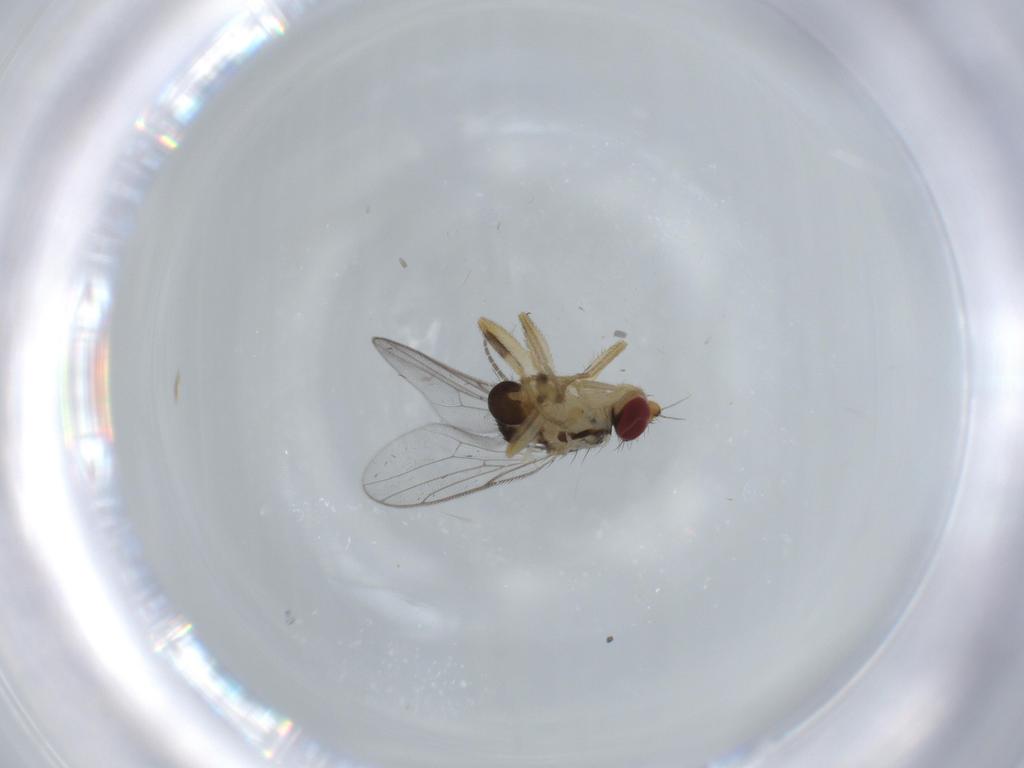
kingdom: Animalia
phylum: Arthropoda
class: Insecta
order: Diptera
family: Chloropidae
